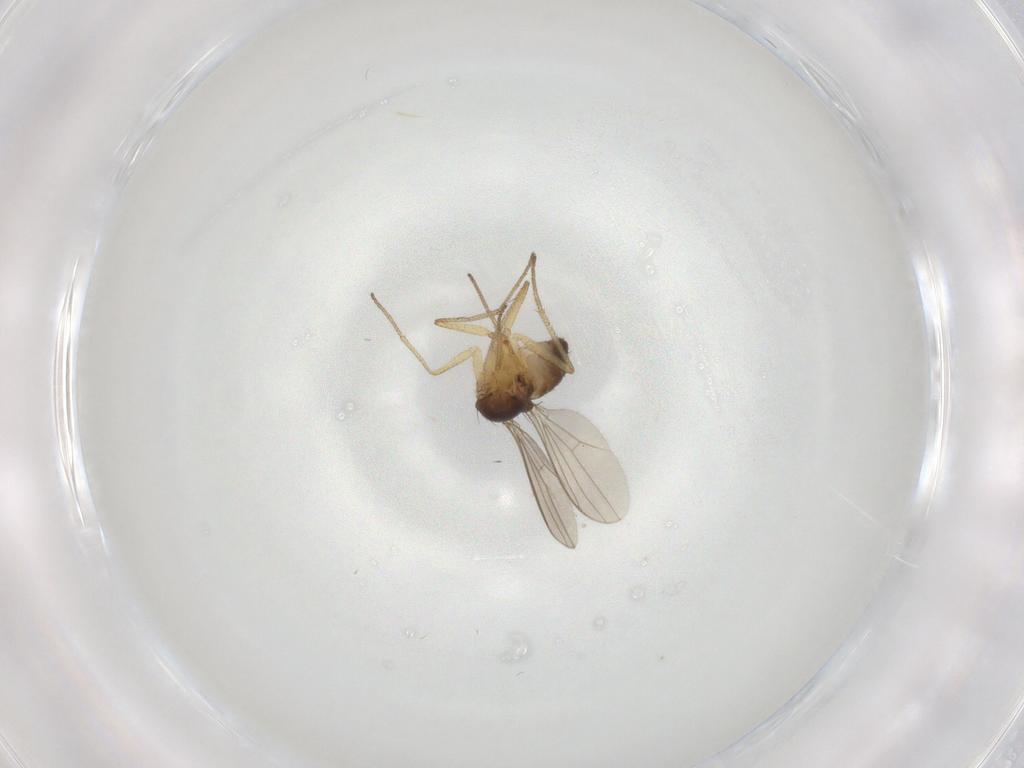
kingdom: Animalia
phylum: Arthropoda
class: Insecta
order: Diptera
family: Dolichopodidae
